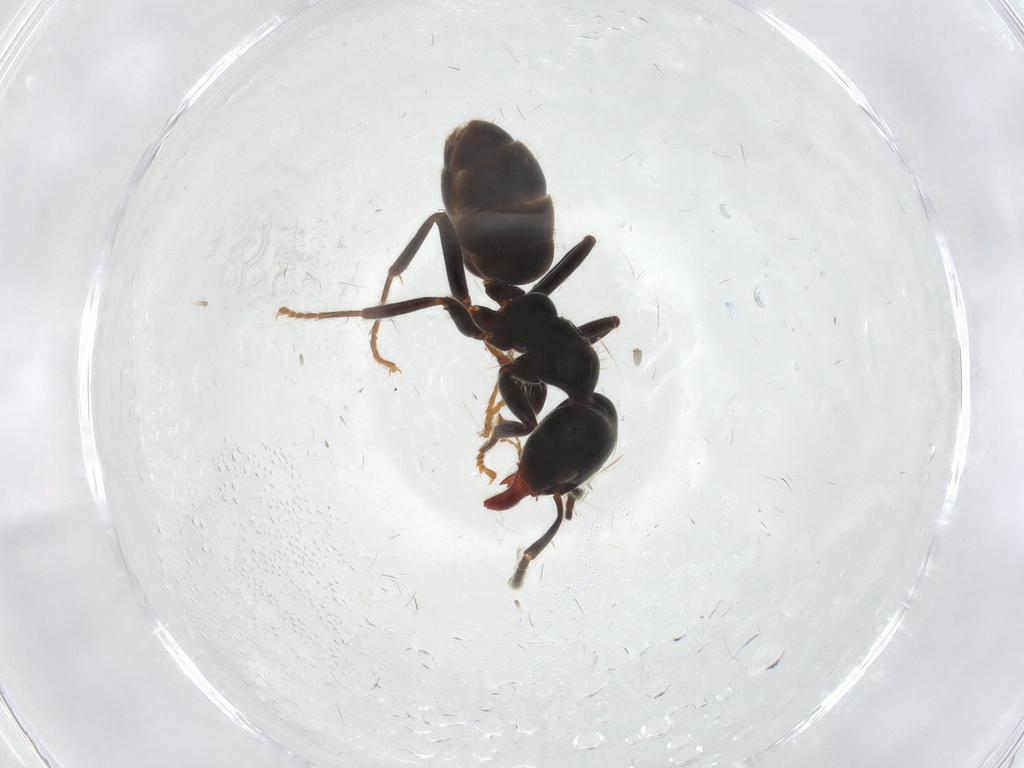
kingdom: Animalia
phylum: Arthropoda
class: Insecta
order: Hymenoptera
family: Formicidae
